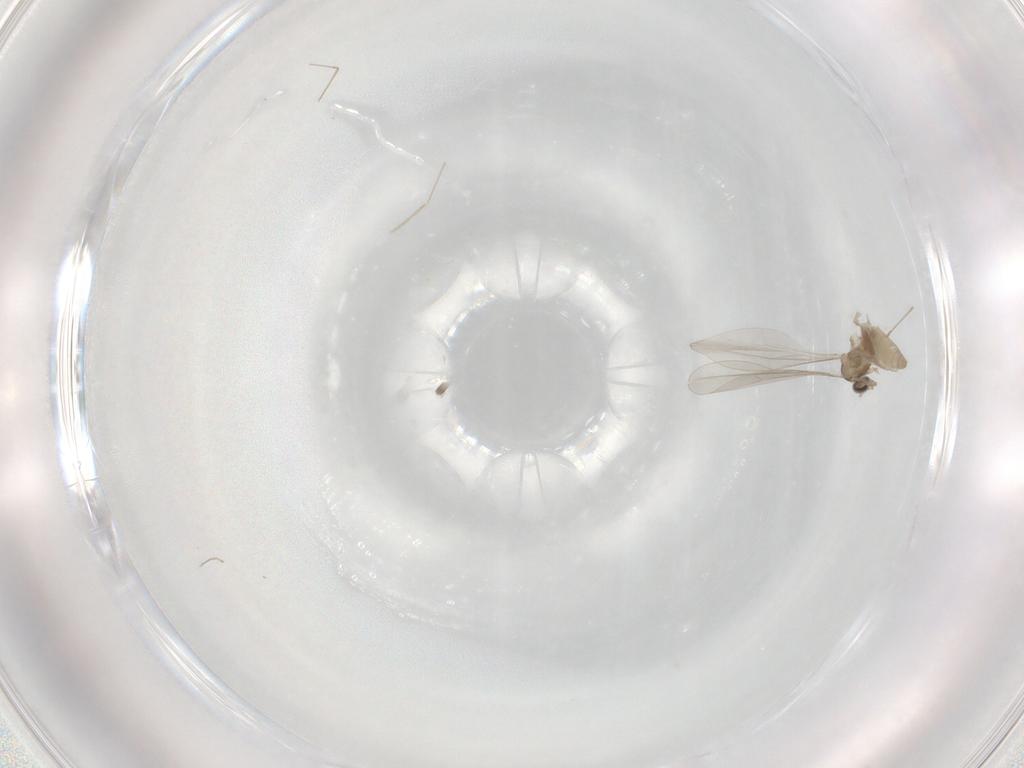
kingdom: Animalia
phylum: Arthropoda
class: Insecta
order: Diptera
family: Cecidomyiidae
